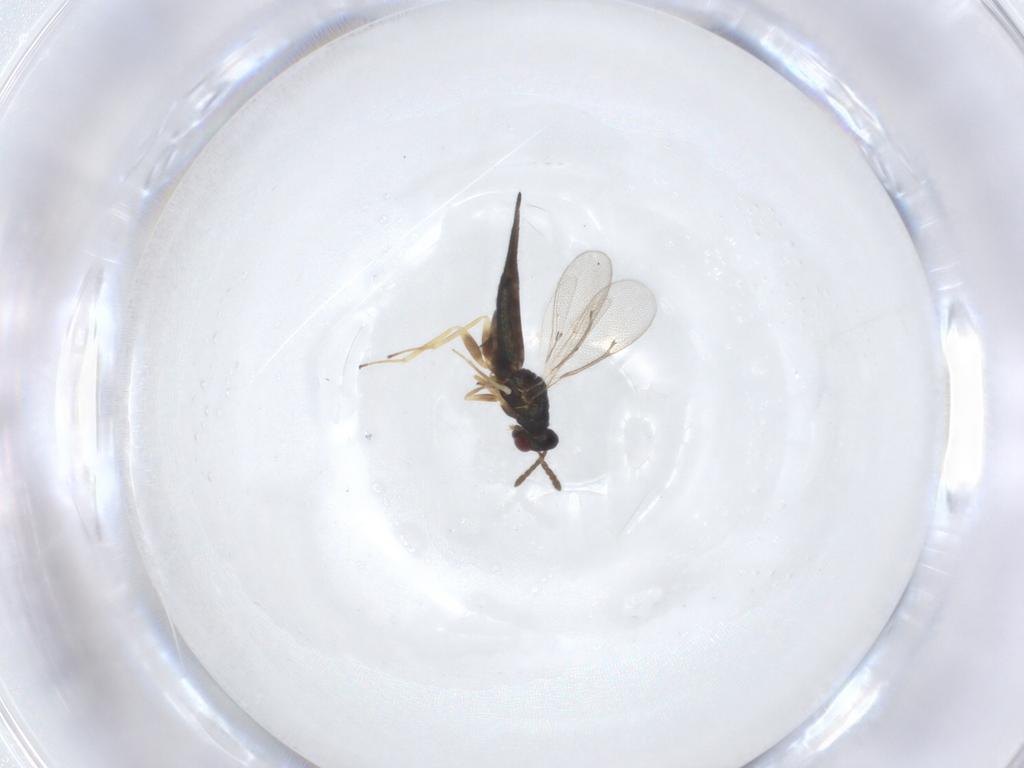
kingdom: Animalia
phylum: Arthropoda
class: Insecta
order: Hymenoptera
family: Eulophidae
